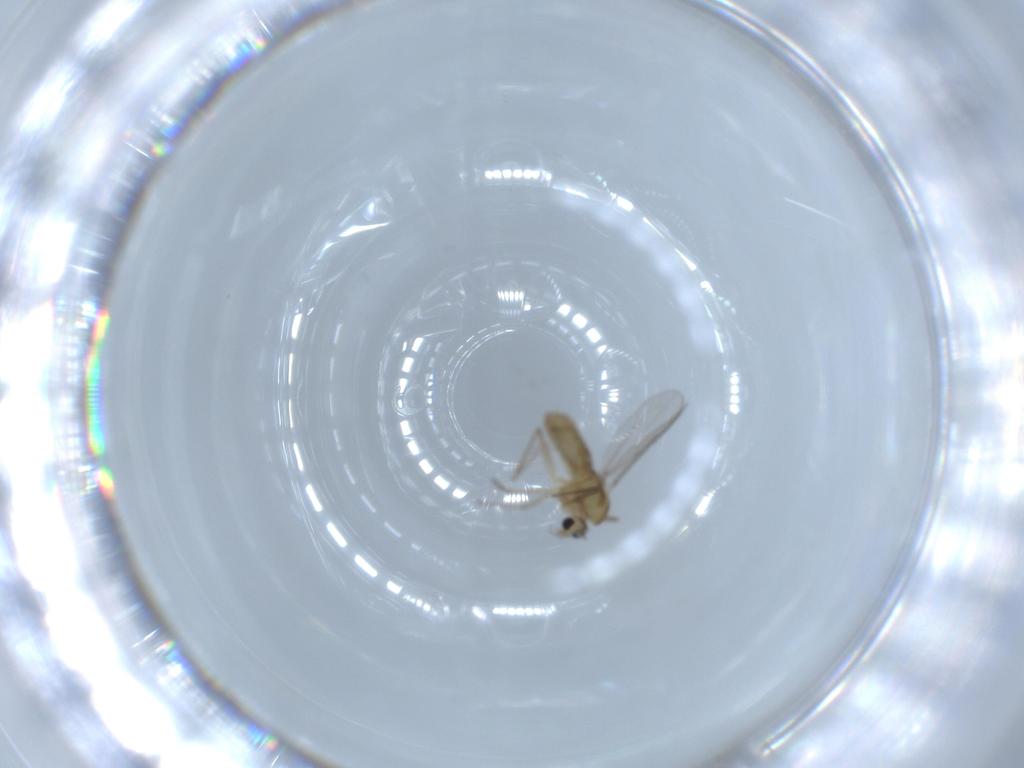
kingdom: Animalia
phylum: Arthropoda
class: Insecta
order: Diptera
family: Chironomidae
